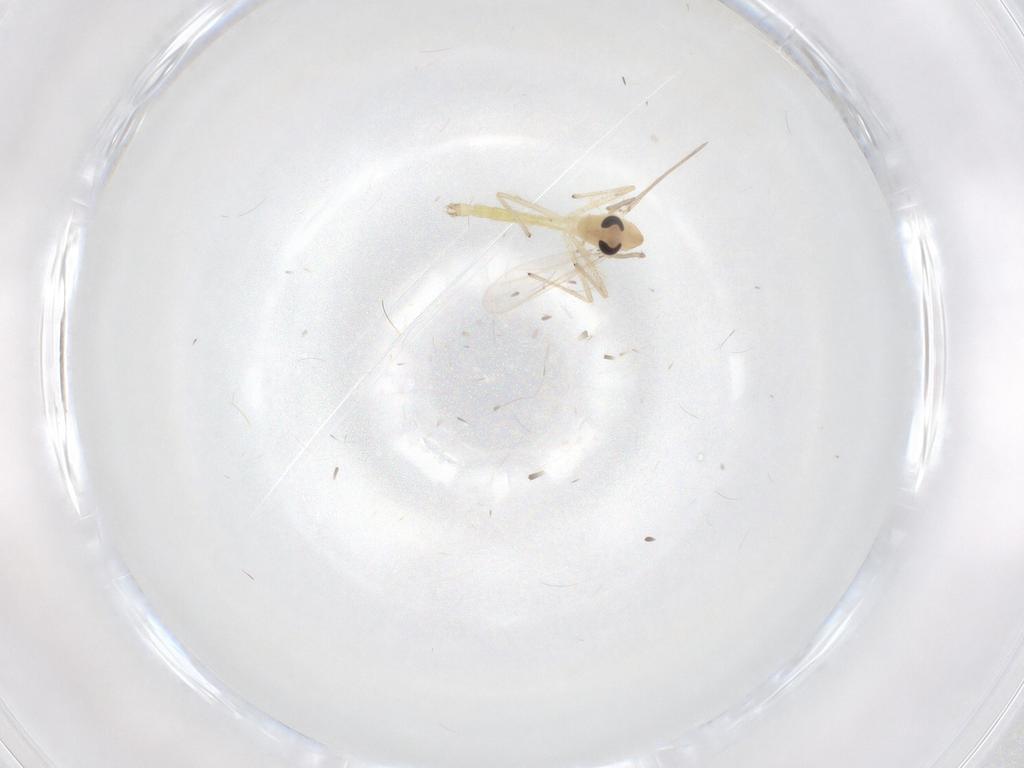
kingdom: Animalia
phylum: Arthropoda
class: Insecta
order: Diptera
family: Chironomidae
